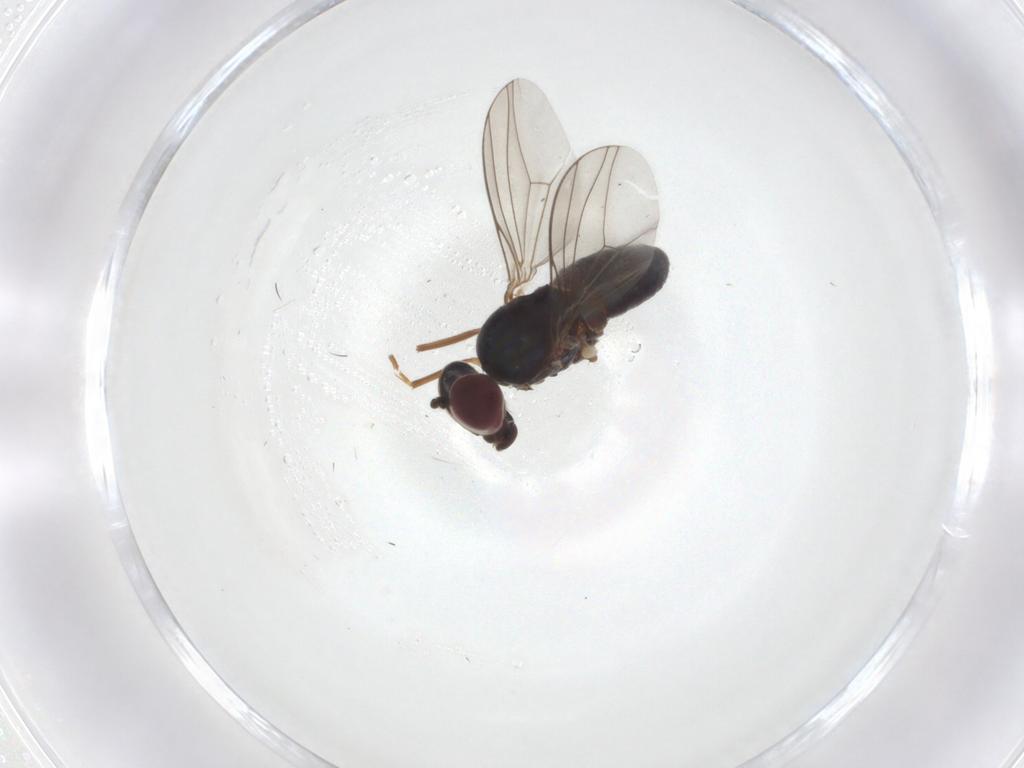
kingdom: Animalia
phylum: Arthropoda
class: Insecta
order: Diptera
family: Dolichopodidae
